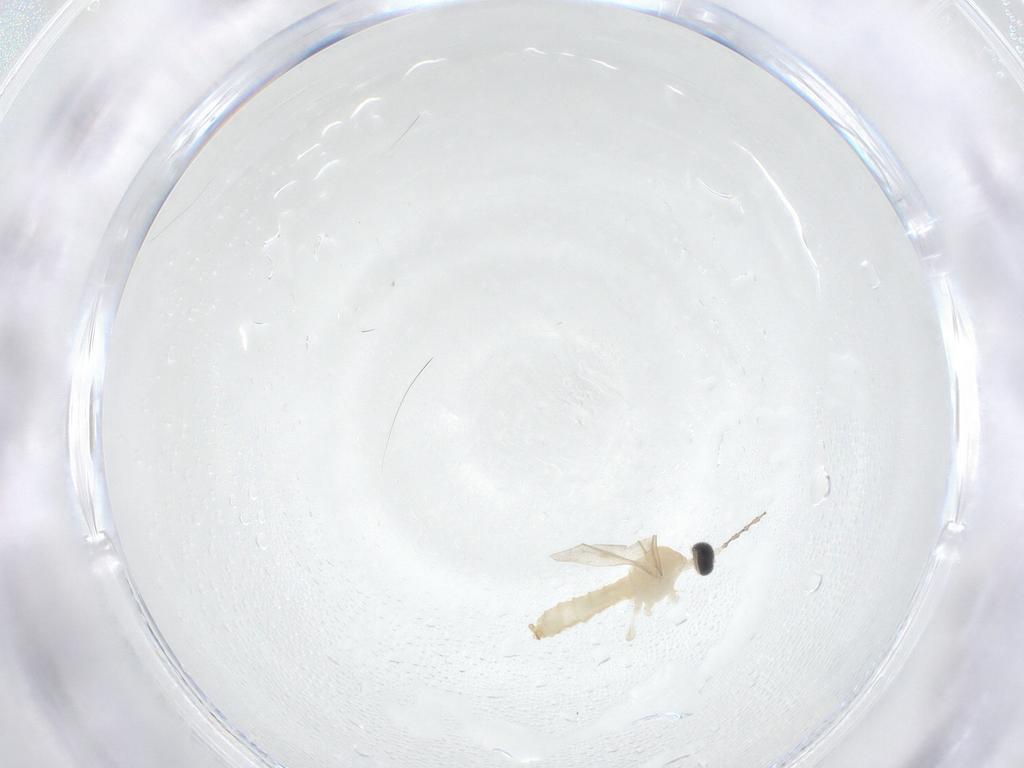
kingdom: Animalia
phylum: Arthropoda
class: Insecta
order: Diptera
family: Cecidomyiidae
